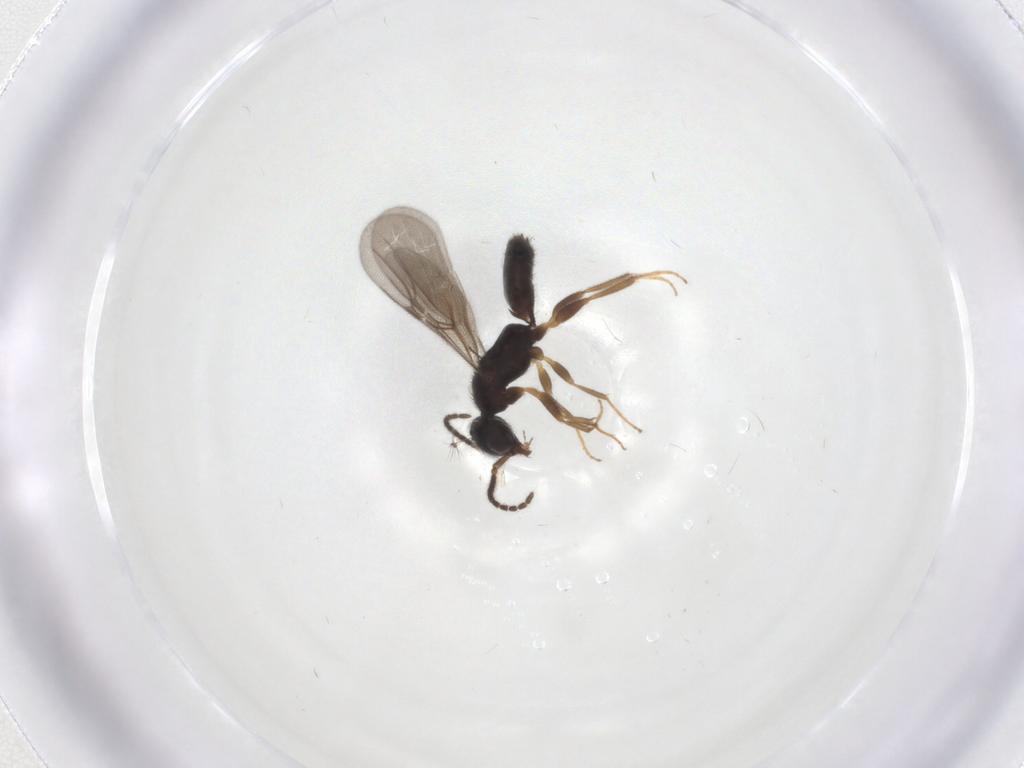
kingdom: Animalia
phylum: Arthropoda
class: Insecta
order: Hymenoptera
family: Bethylidae
